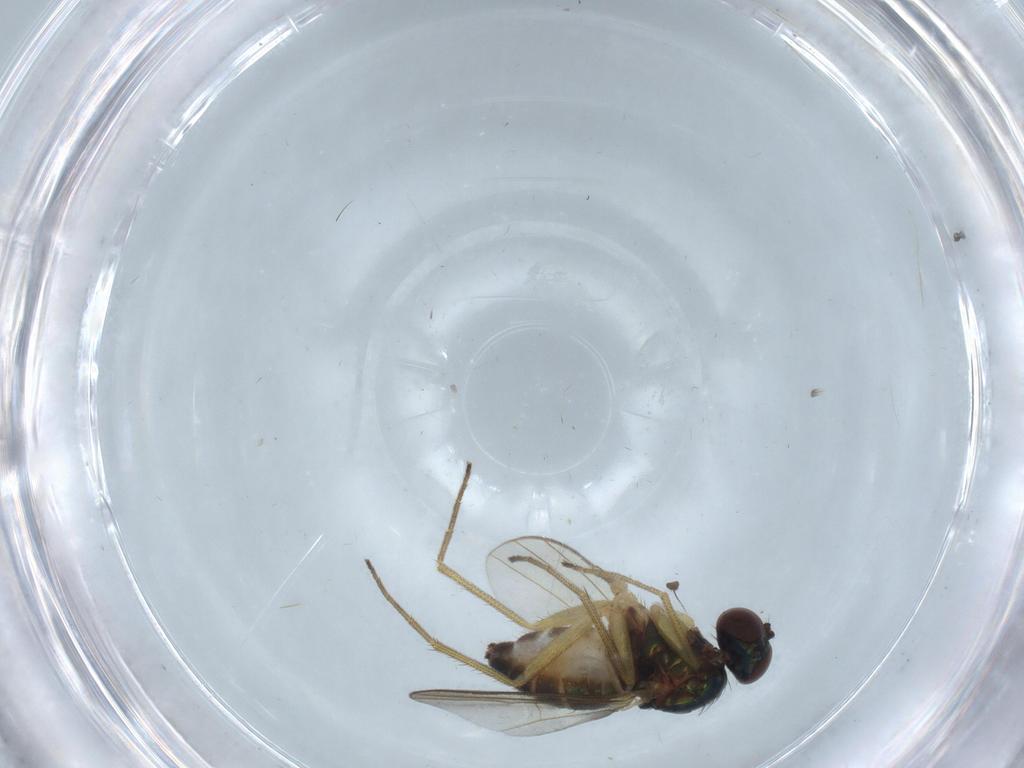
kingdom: Animalia
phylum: Arthropoda
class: Insecta
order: Diptera
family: Dolichopodidae
